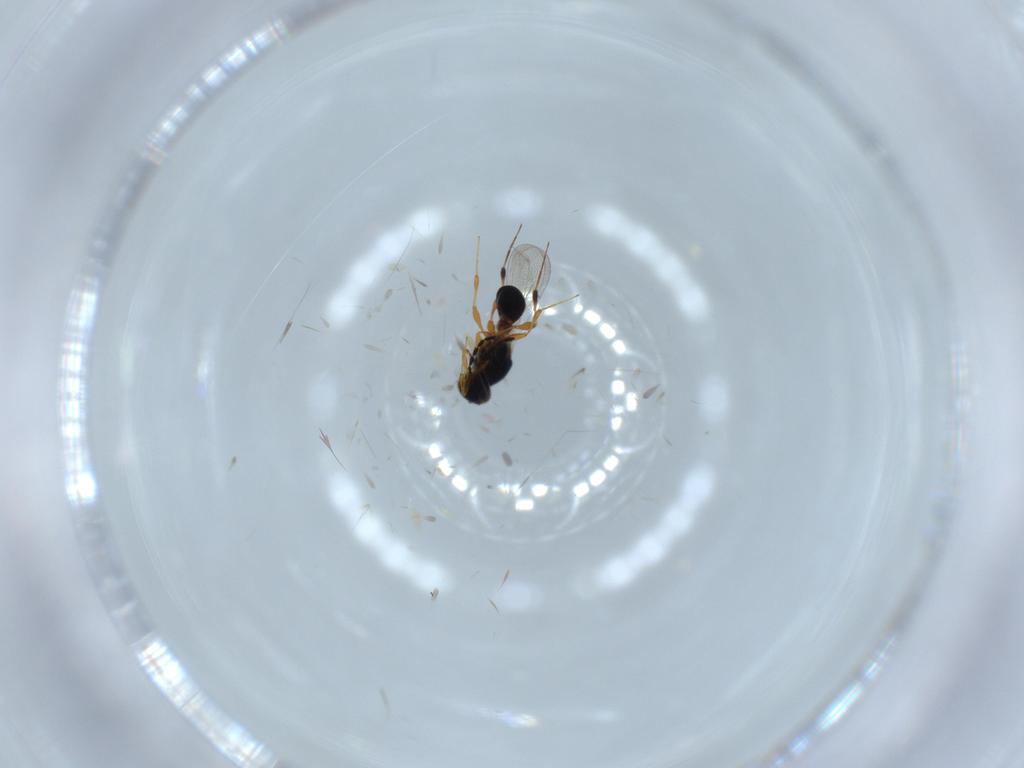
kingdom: Animalia
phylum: Arthropoda
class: Insecta
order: Hymenoptera
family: Platygastridae
